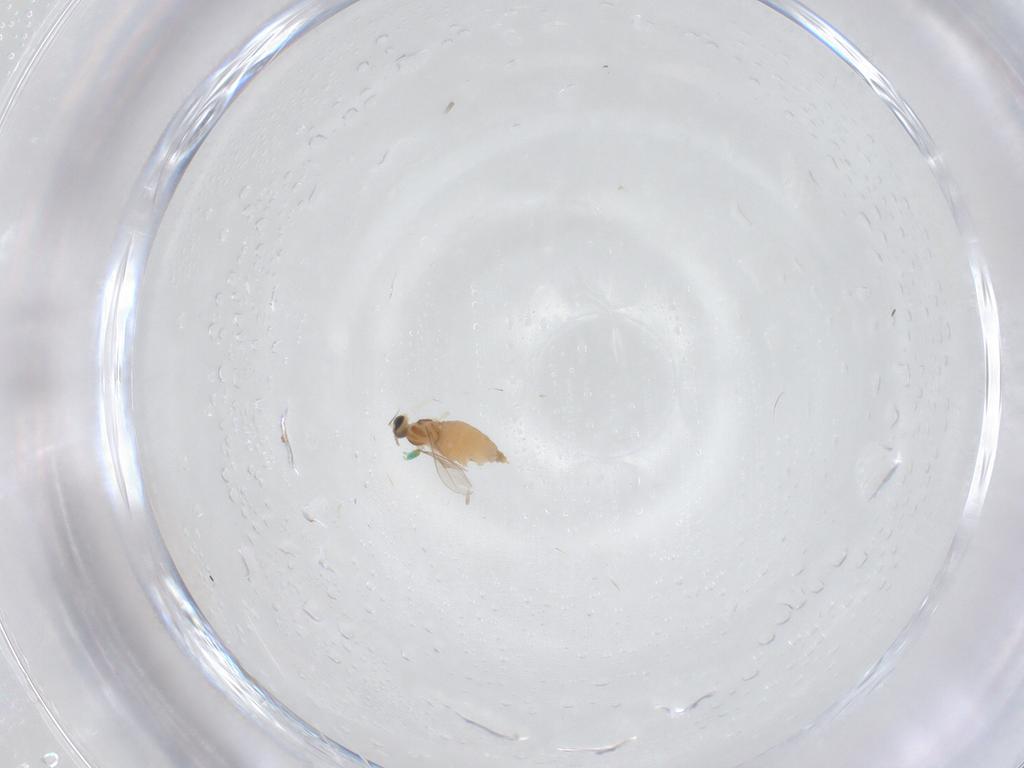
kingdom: Animalia
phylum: Arthropoda
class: Insecta
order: Diptera
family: Cecidomyiidae
